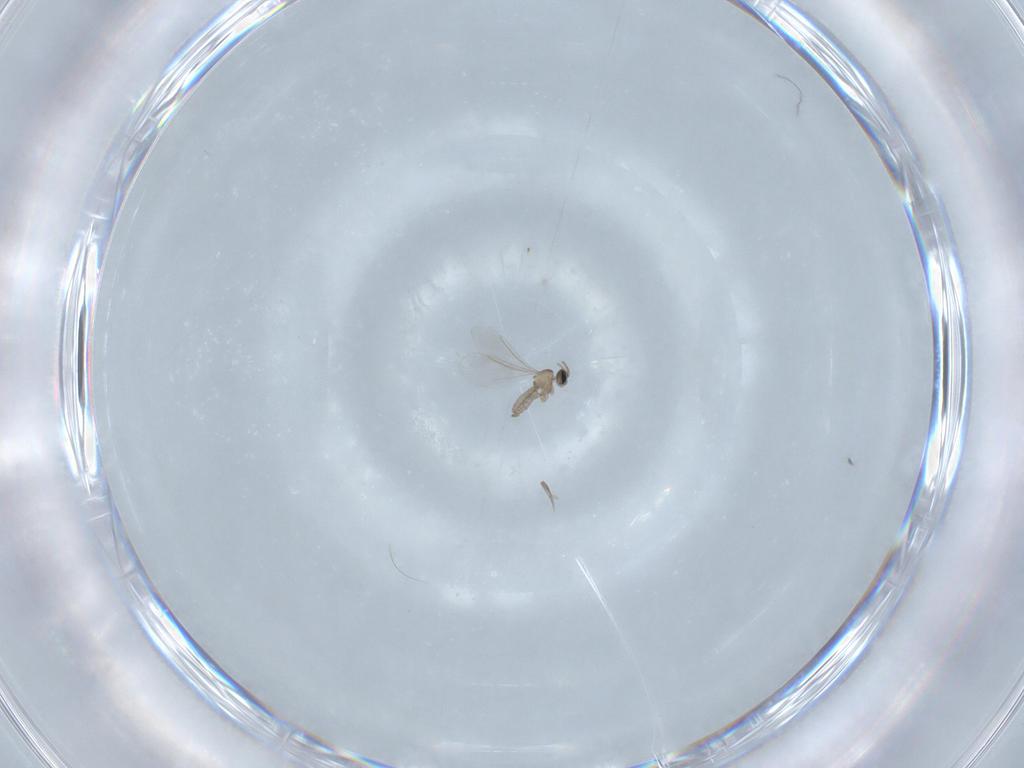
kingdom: Animalia
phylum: Arthropoda
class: Insecta
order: Diptera
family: Cecidomyiidae
